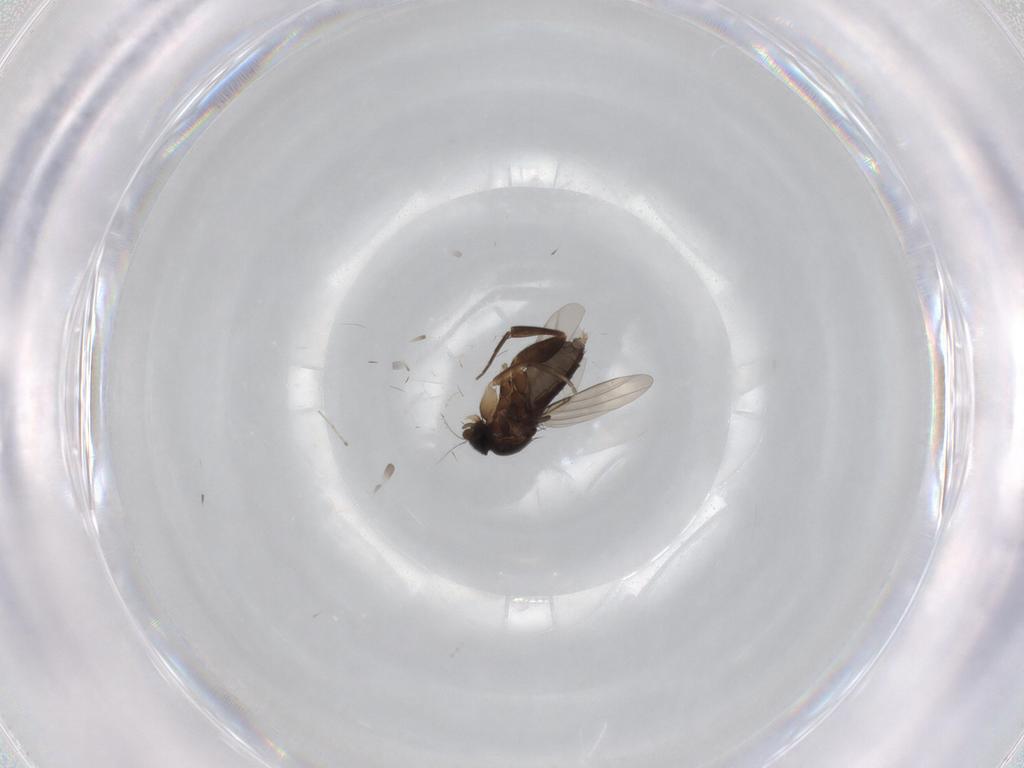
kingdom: Animalia
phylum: Arthropoda
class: Insecta
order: Diptera
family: Phoridae
